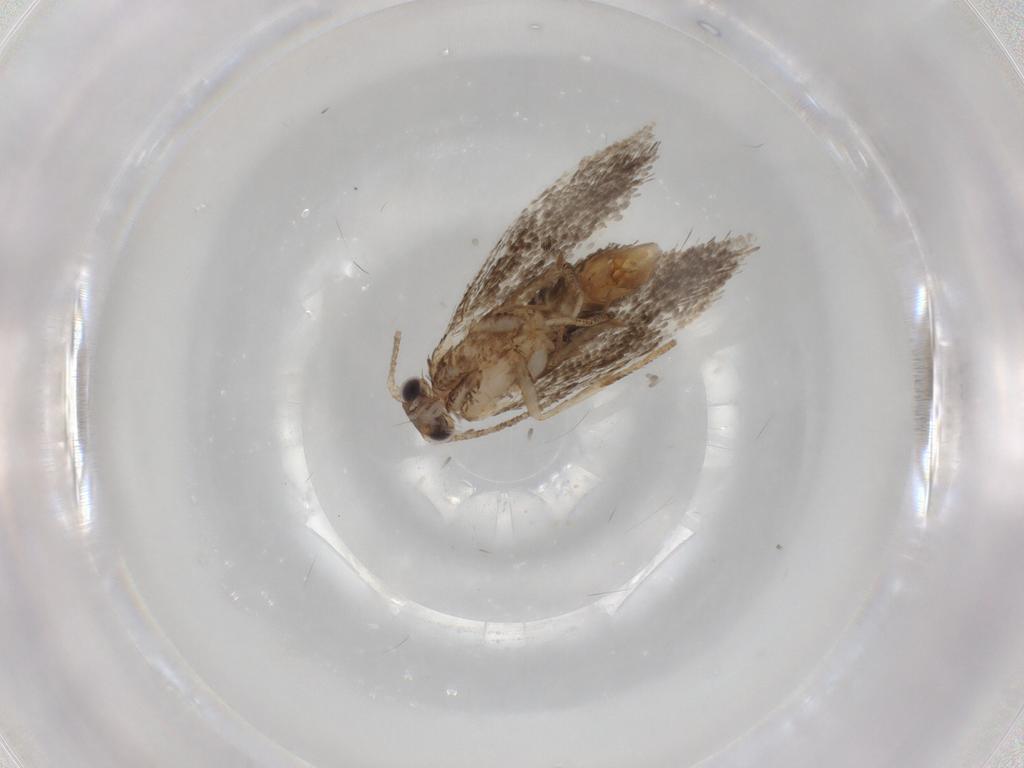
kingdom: Animalia
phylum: Arthropoda
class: Insecta
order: Lepidoptera
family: Tineidae
